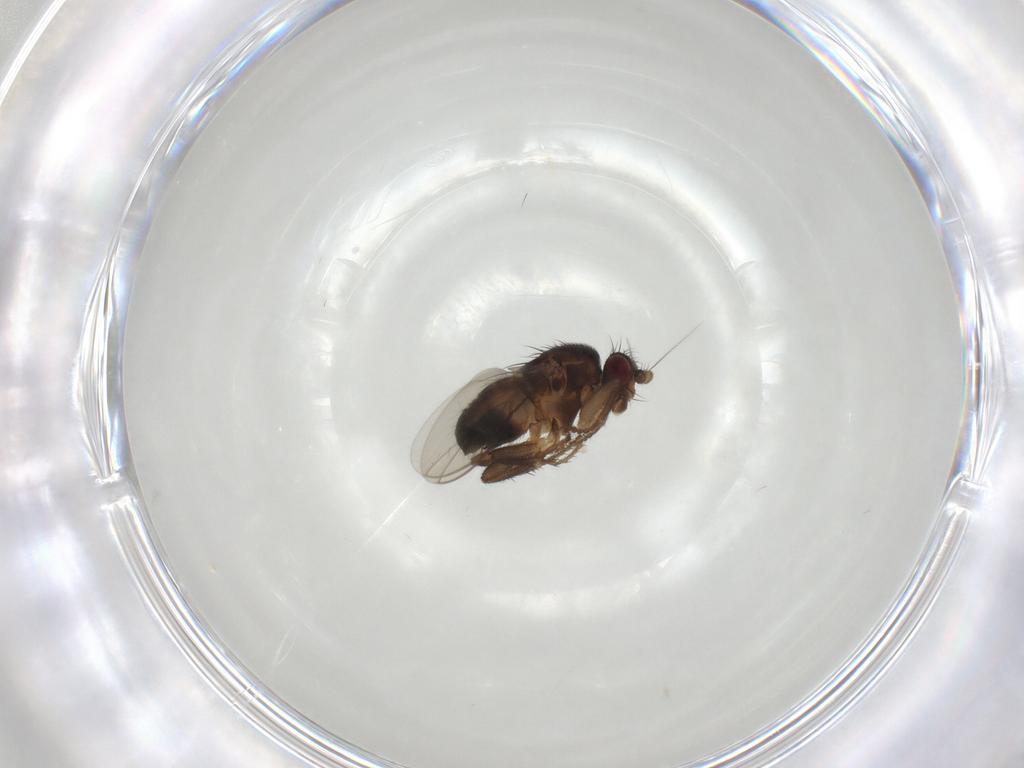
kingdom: Animalia
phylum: Arthropoda
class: Insecta
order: Diptera
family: Sphaeroceridae
